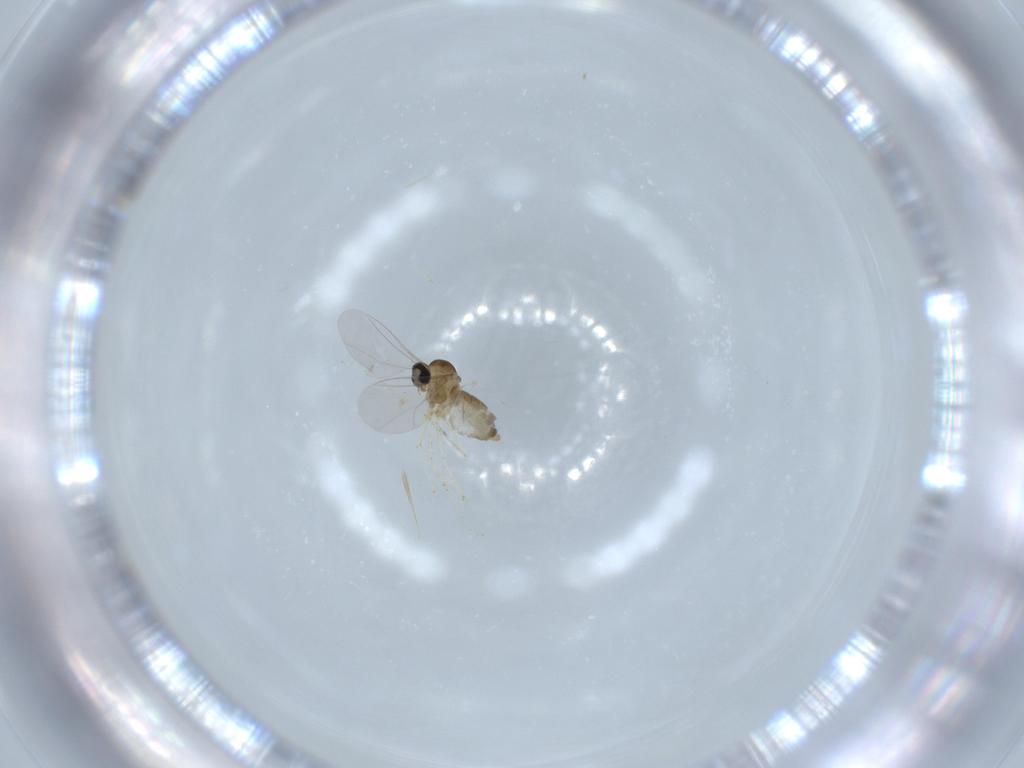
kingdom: Animalia
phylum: Arthropoda
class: Insecta
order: Diptera
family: Cecidomyiidae
